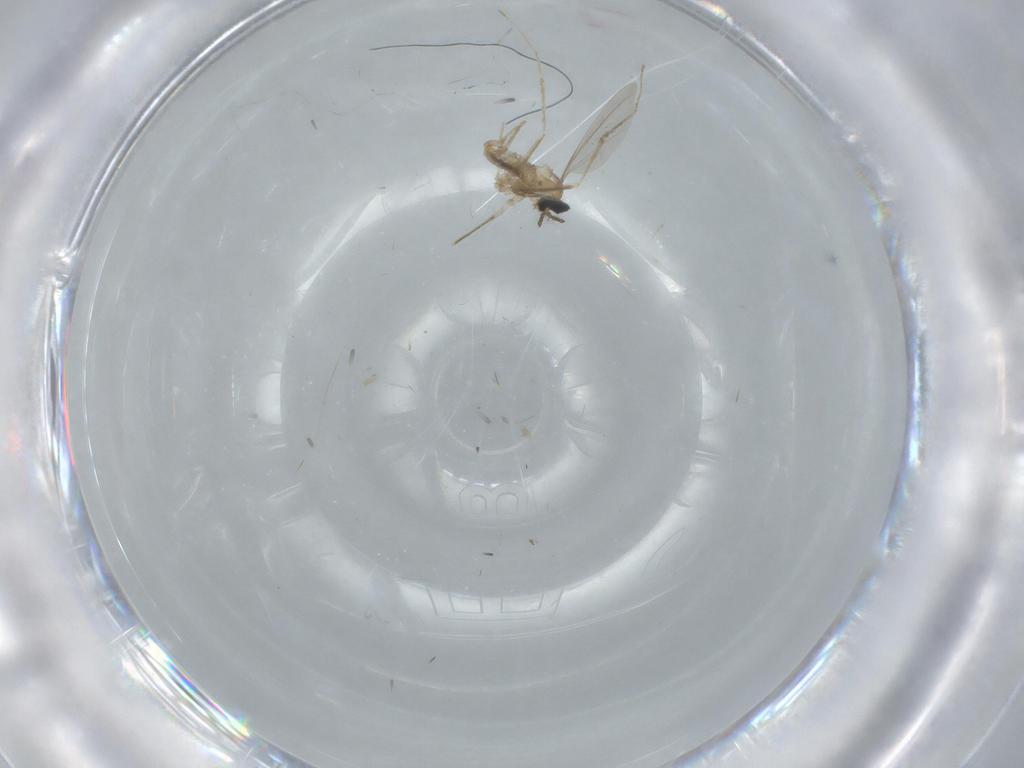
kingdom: Animalia
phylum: Arthropoda
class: Insecta
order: Diptera
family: Cecidomyiidae
